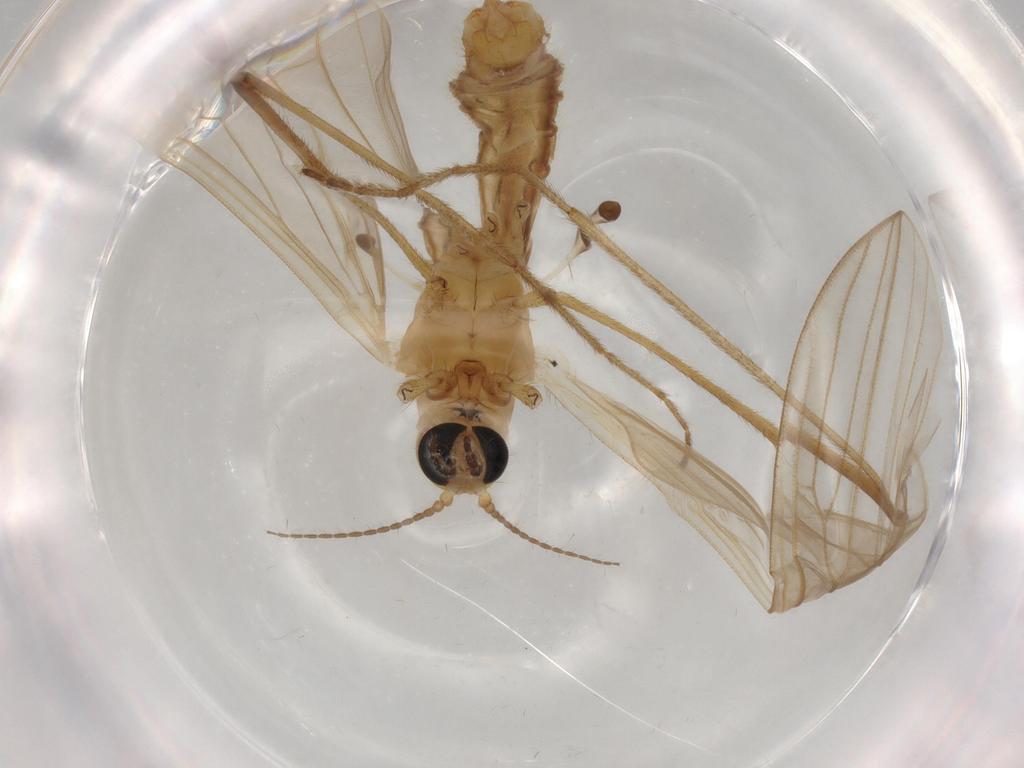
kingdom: Animalia
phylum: Arthropoda
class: Insecta
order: Diptera
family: Limoniidae
